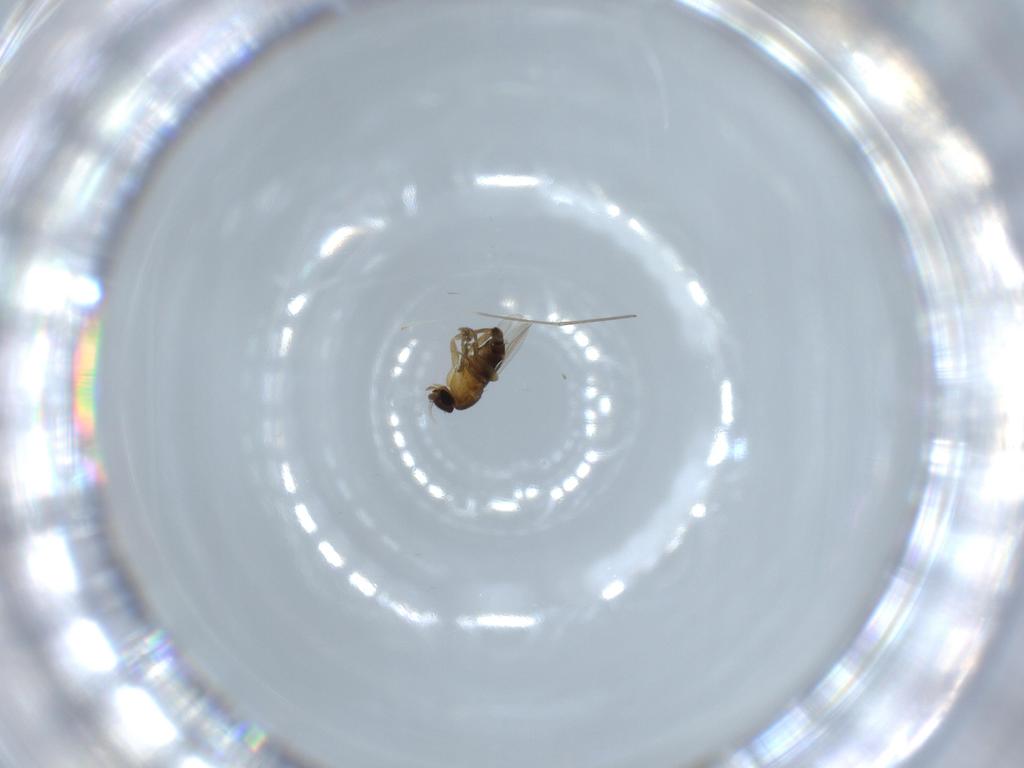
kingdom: Animalia
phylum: Arthropoda
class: Insecta
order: Diptera
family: Phoridae
